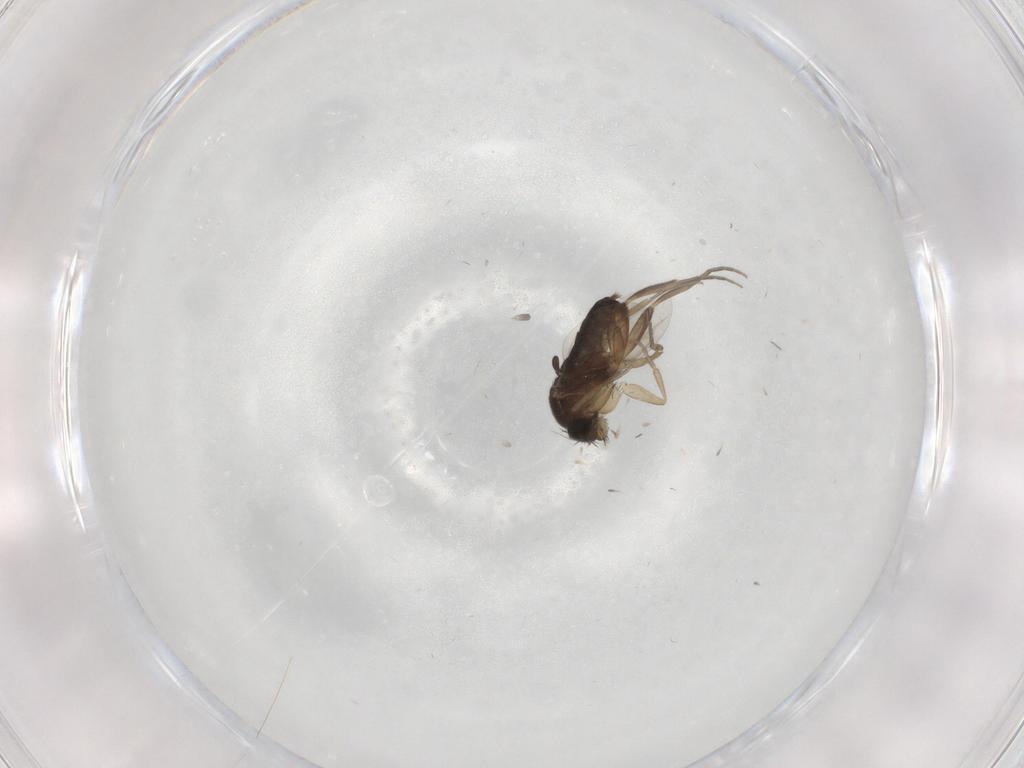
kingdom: Animalia
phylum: Arthropoda
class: Insecta
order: Diptera
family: Phoridae
